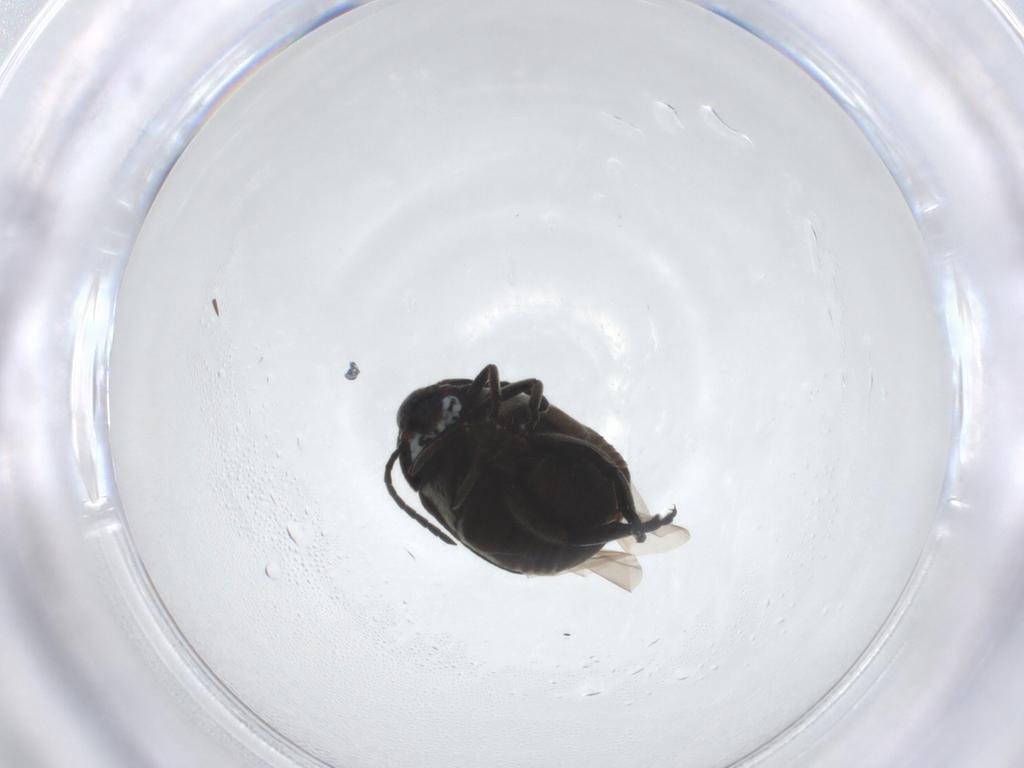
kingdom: Animalia
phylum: Arthropoda
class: Insecta
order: Coleoptera
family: Chrysomelidae
